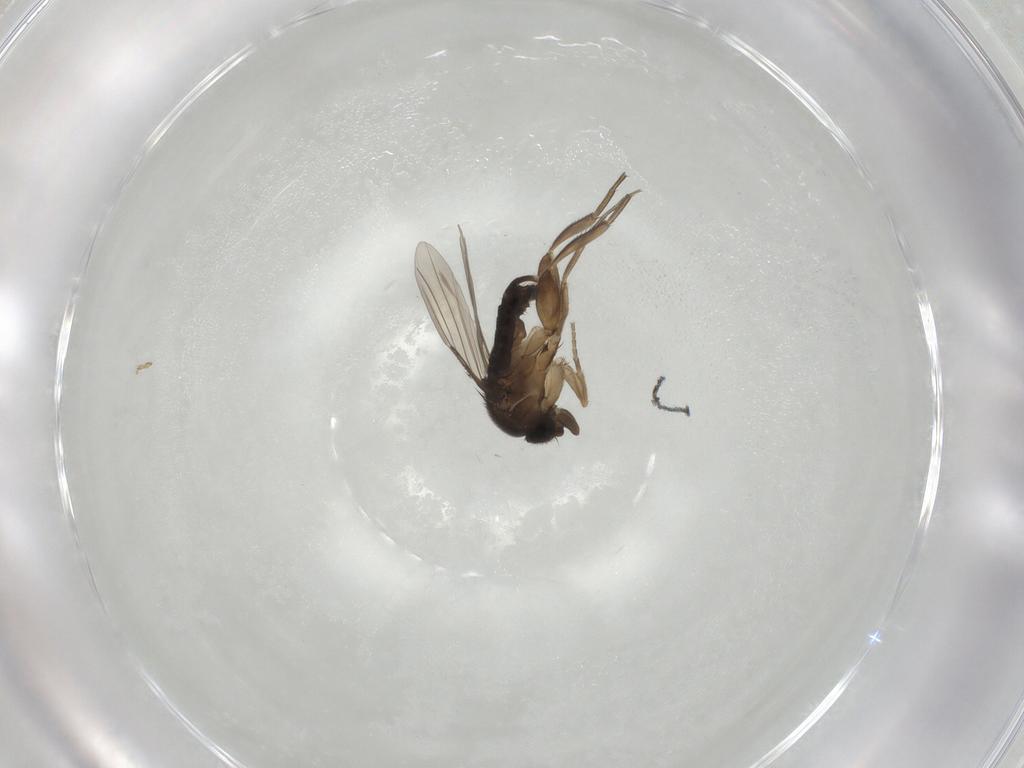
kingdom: Animalia
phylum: Arthropoda
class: Insecta
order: Diptera
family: Phoridae
